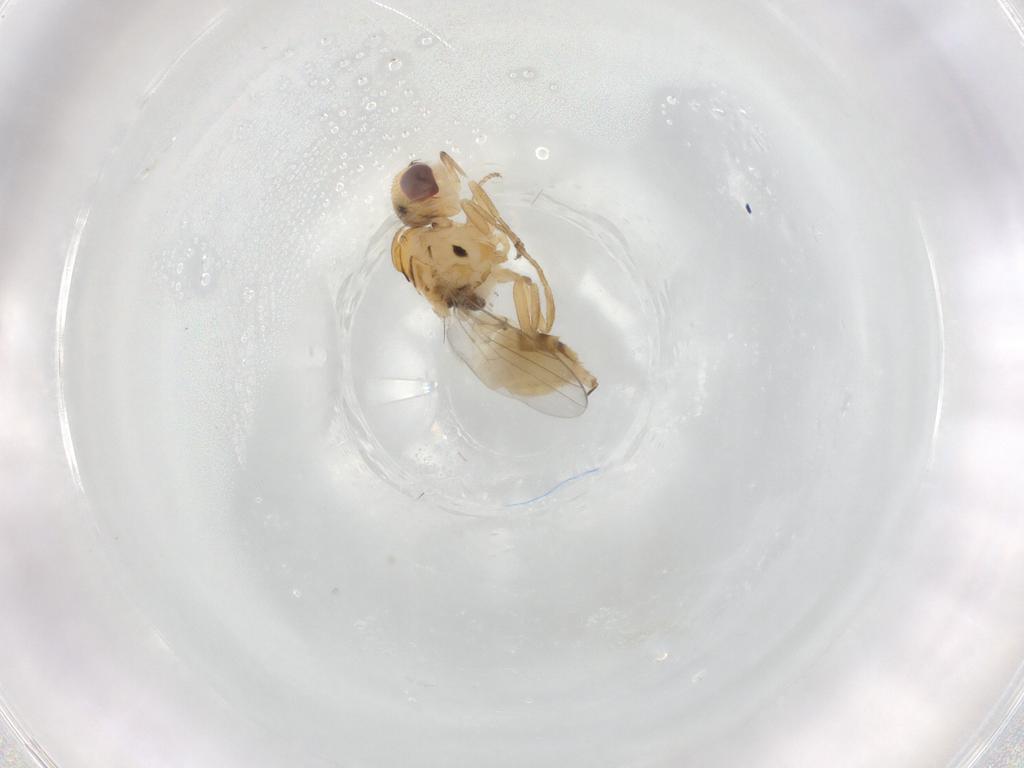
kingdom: Animalia
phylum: Arthropoda
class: Insecta
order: Diptera
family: Chloropidae
